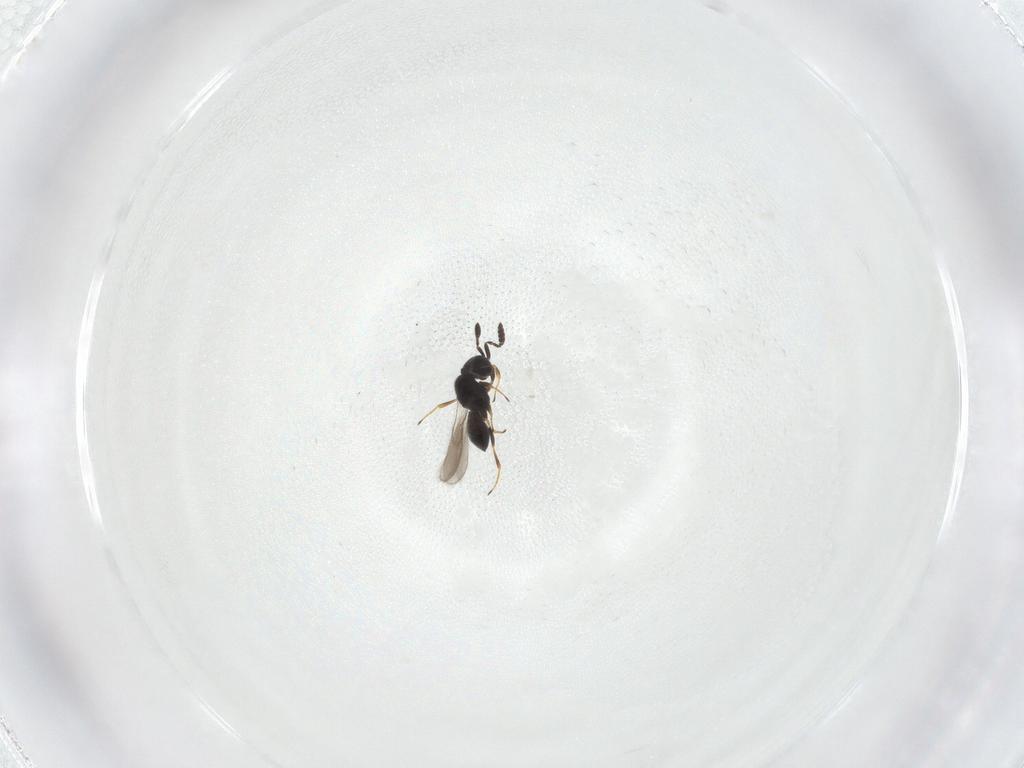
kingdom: Animalia
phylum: Arthropoda
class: Insecta
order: Hymenoptera
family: Scelionidae
